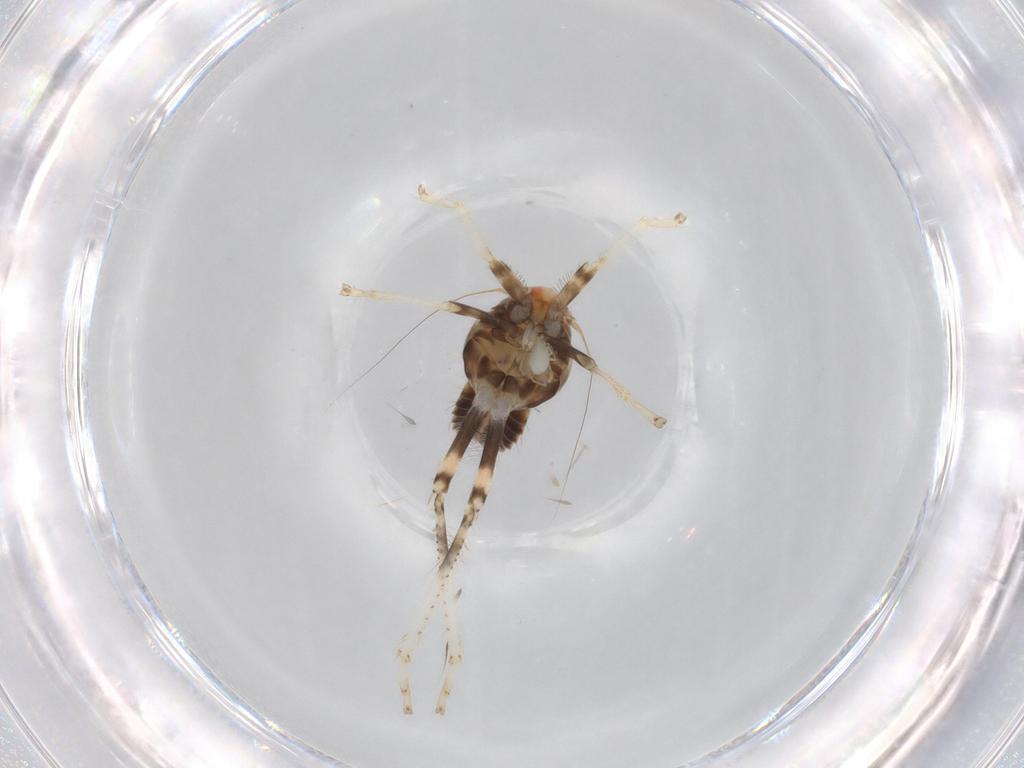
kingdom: Animalia
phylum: Arthropoda
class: Insecta
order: Hemiptera
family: Cicadellidae
